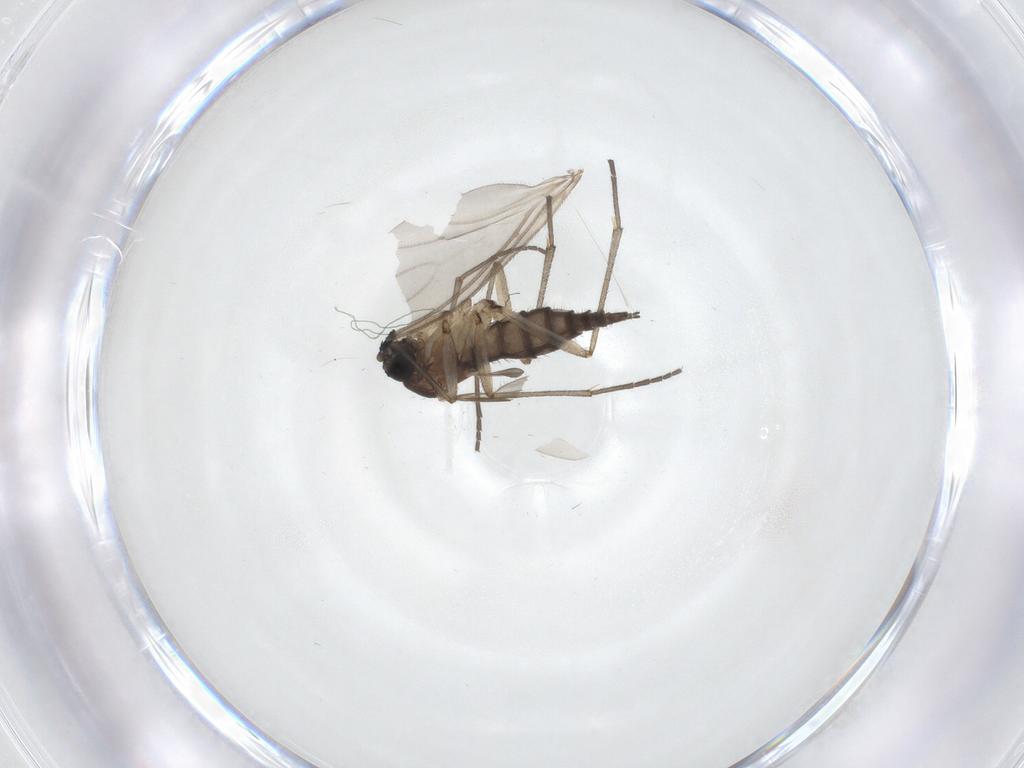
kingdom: Animalia
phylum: Arthropoda
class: Insecta
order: Diptera
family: Sciaridae
